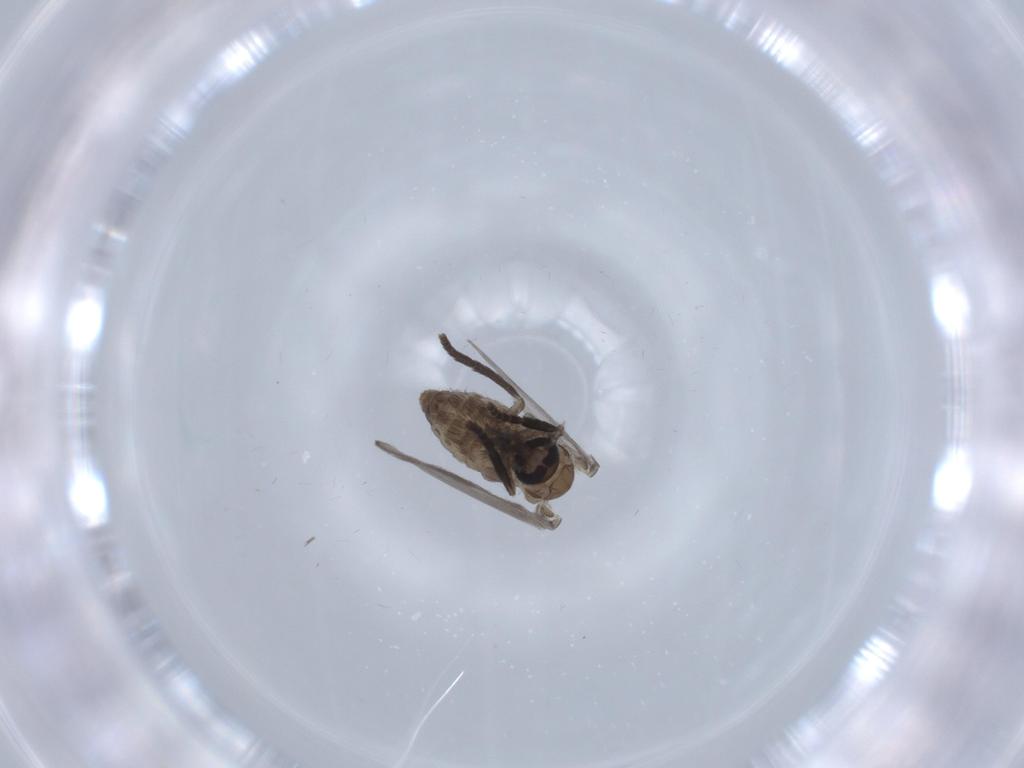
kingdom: Animalia
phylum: Arthropoda
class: Insecta
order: Diptera
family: Psychodidae
